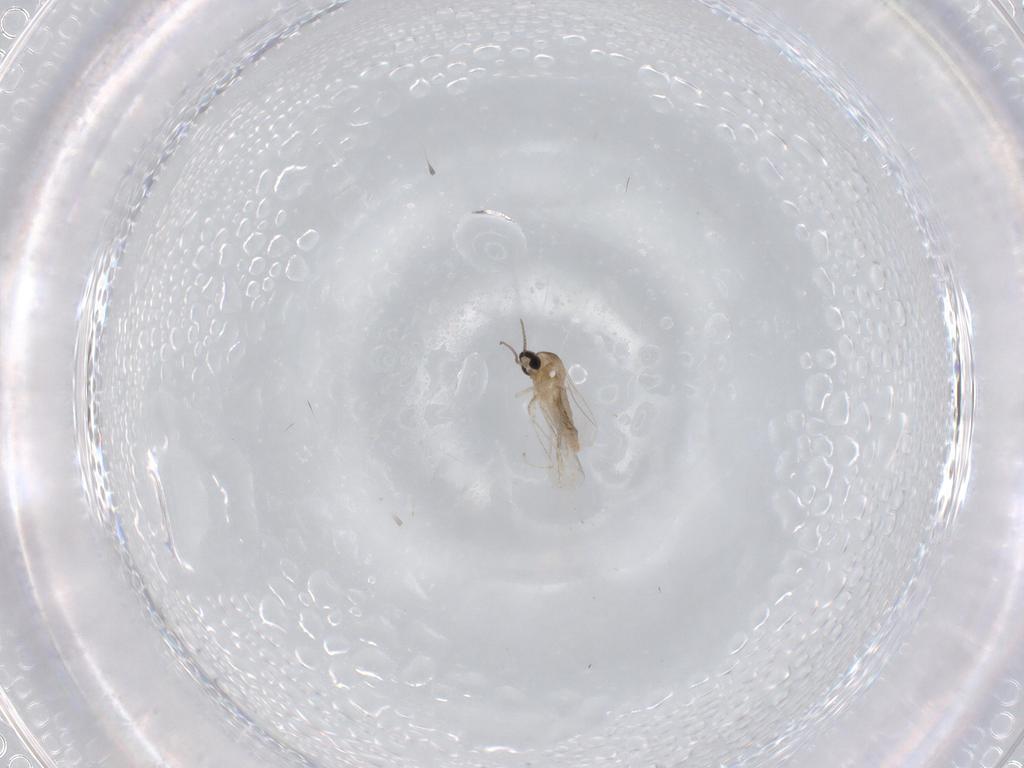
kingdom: Animalia
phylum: Arthropoda
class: Insecta
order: Diptera
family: Cecidomyiidae
